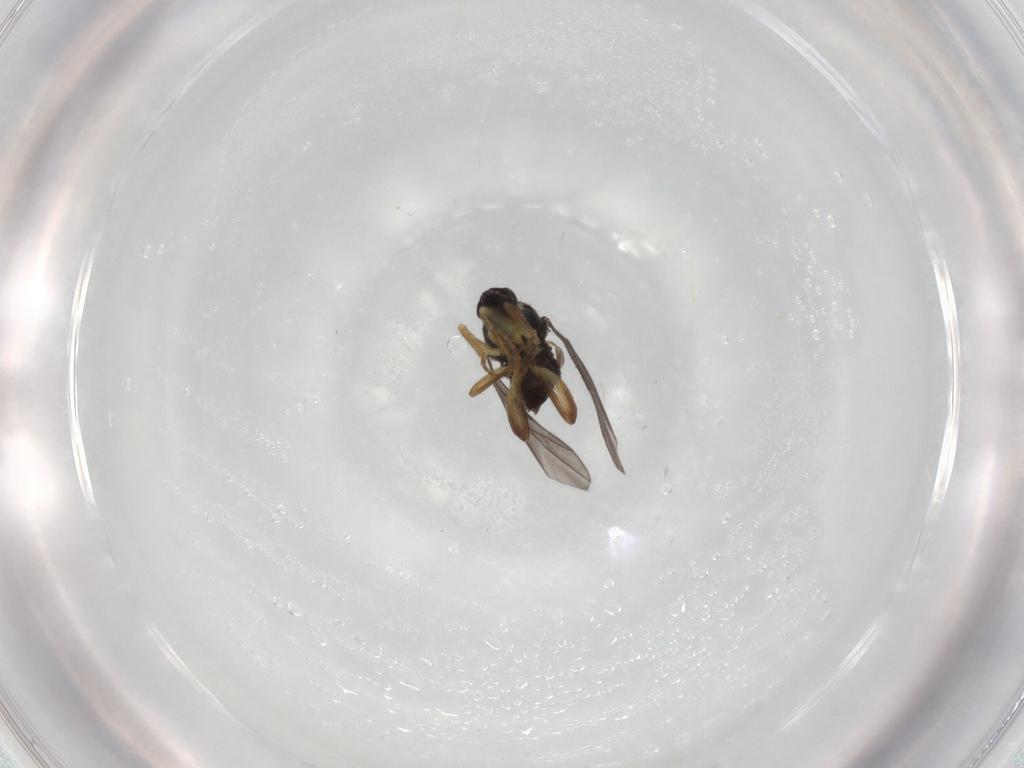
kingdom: Animalia
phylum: Arthropoda
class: Insecta
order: Diptera
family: Hybotidae
